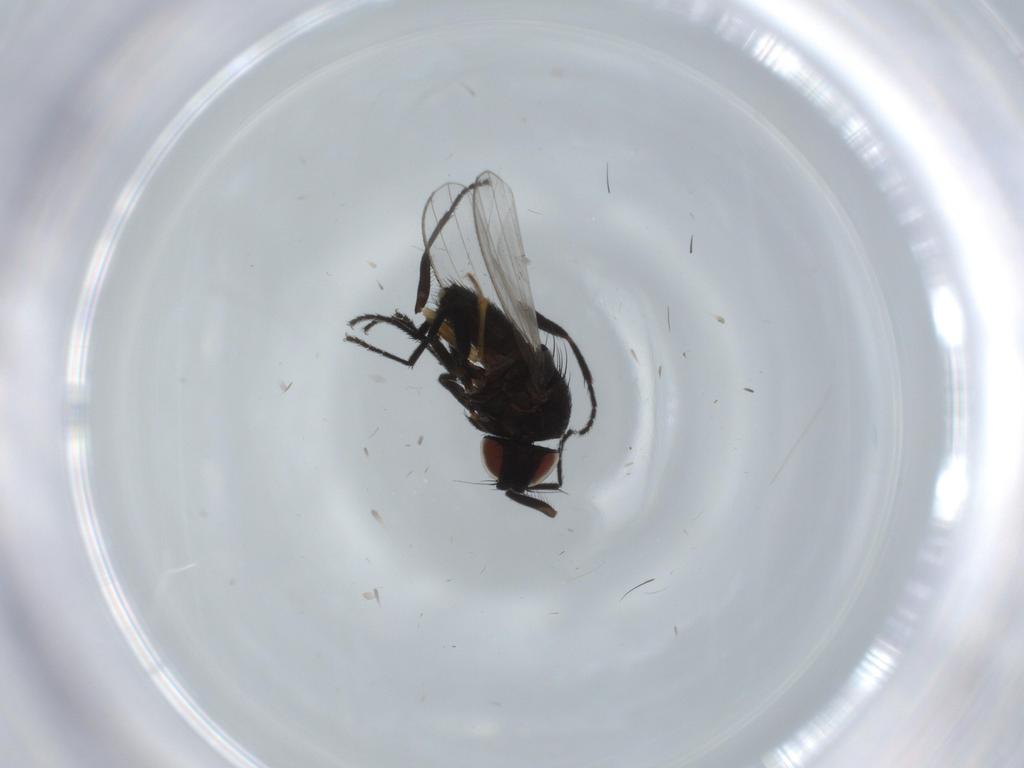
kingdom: Animalia
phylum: Arthropoda
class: Insecta
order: Diptera
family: Milichiidae
